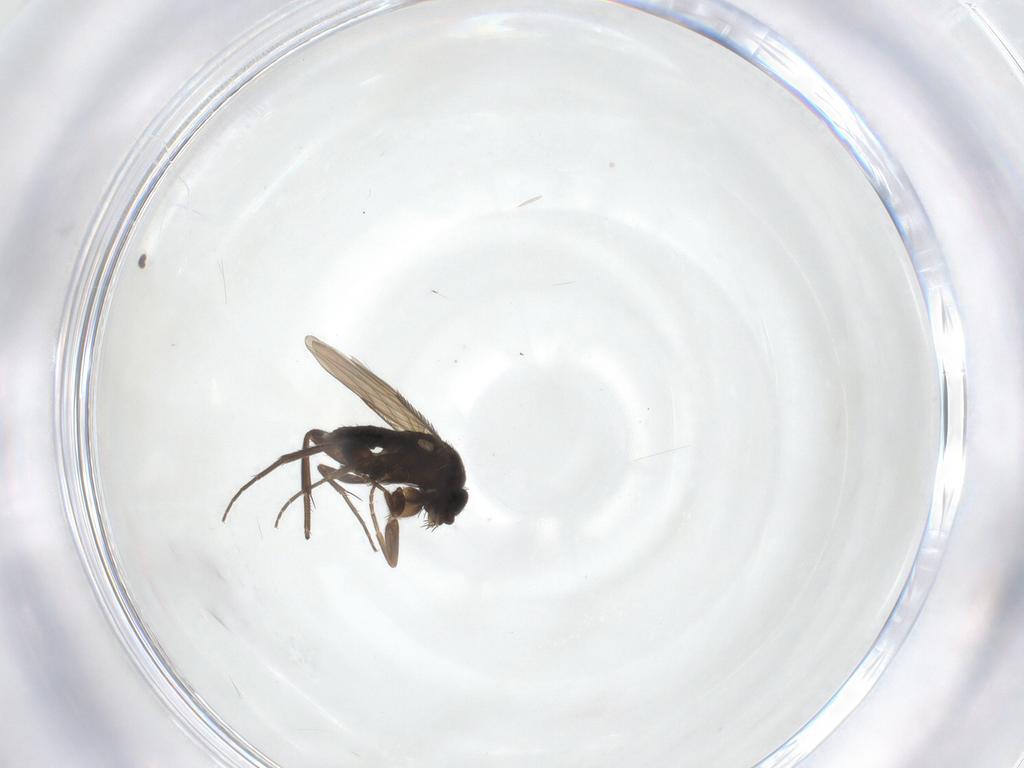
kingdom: Animalia
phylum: Arthropoda
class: Insecta
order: Diptera
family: Phoridae
